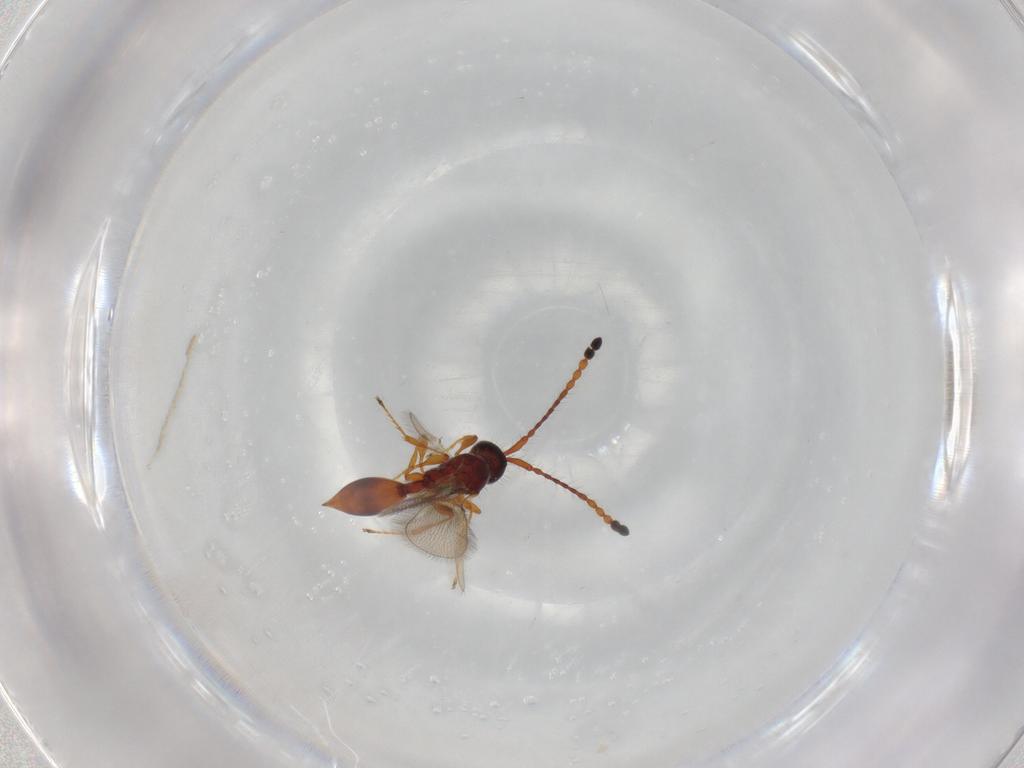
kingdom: Animalia
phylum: Arthropoda
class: Insecta
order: Hymenoptera
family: Diapriidae
